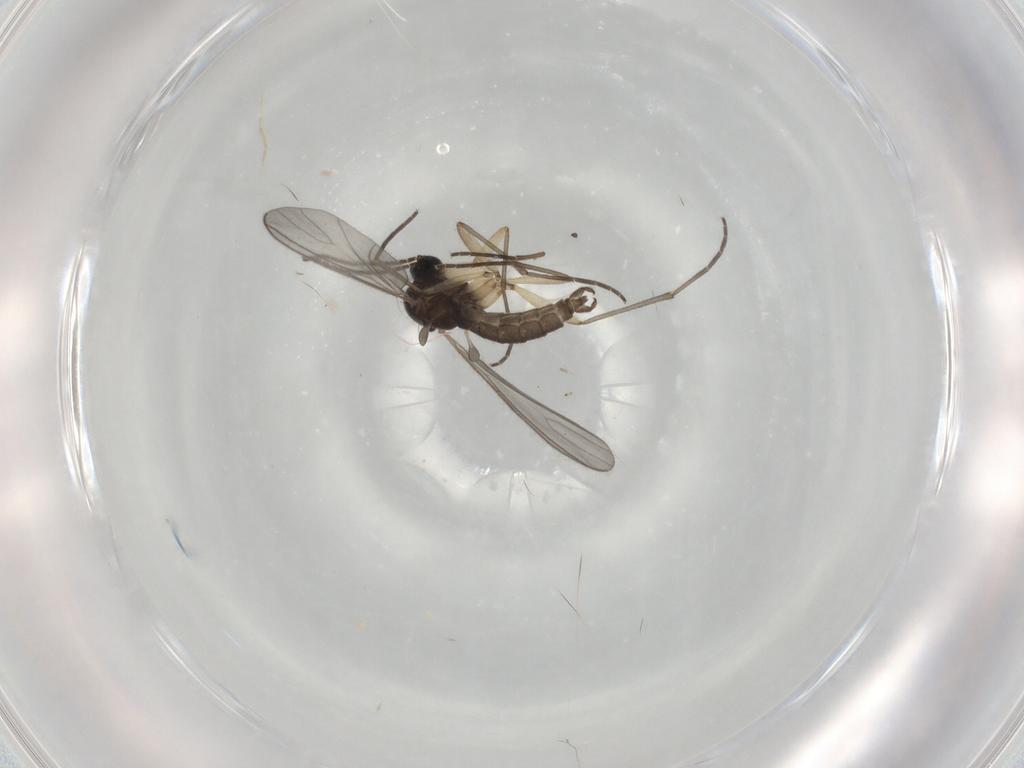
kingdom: Animalia
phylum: Arthropoda
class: Insecta
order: Diptera
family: Sciaridae
